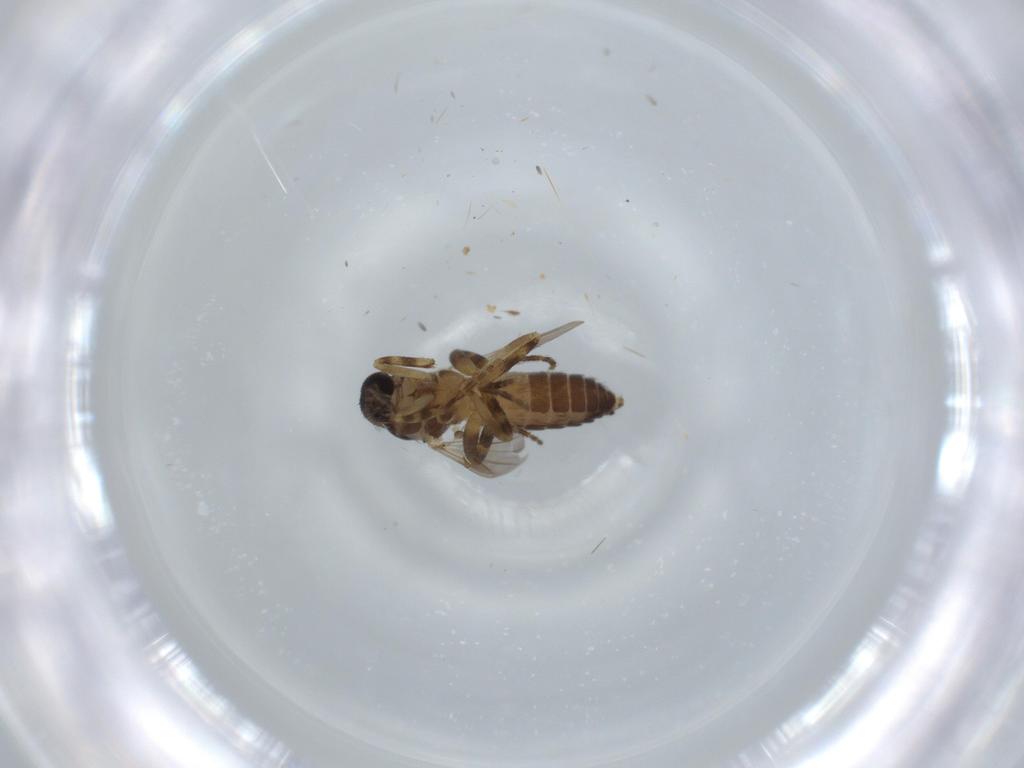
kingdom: Animalia
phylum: Arthropoda
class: Insecta
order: Diptera
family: Ceratopogonidae
